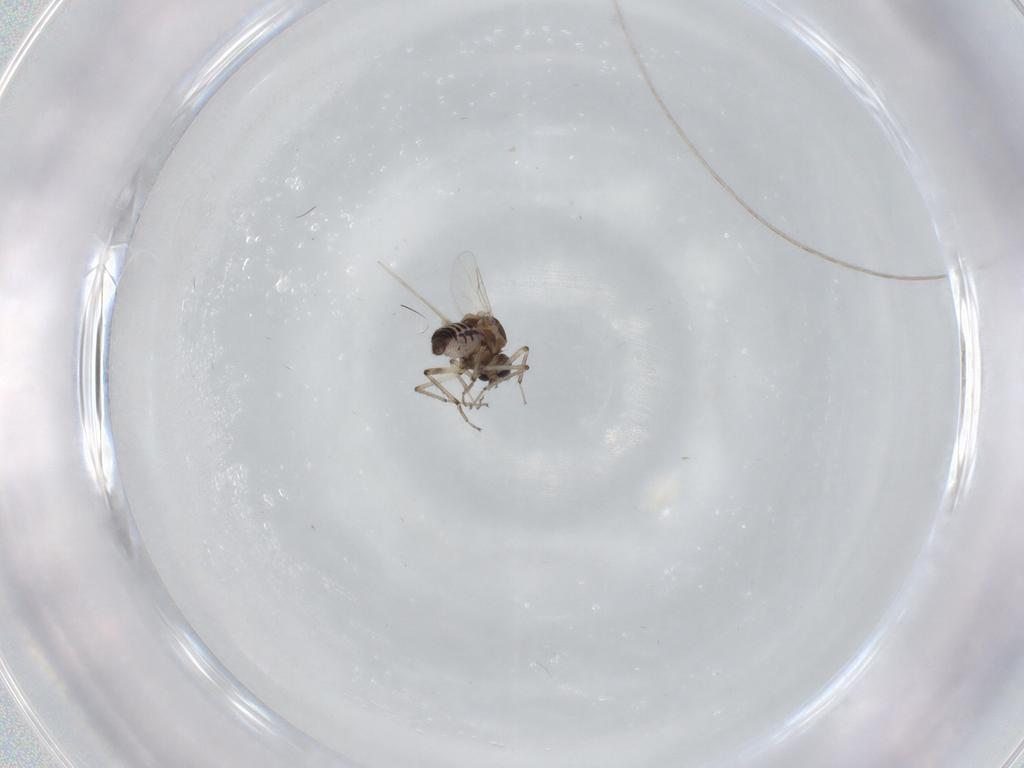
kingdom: Animalia
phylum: Arthropoda
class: Insecta
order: Diptera
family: Ceratopogonidae
